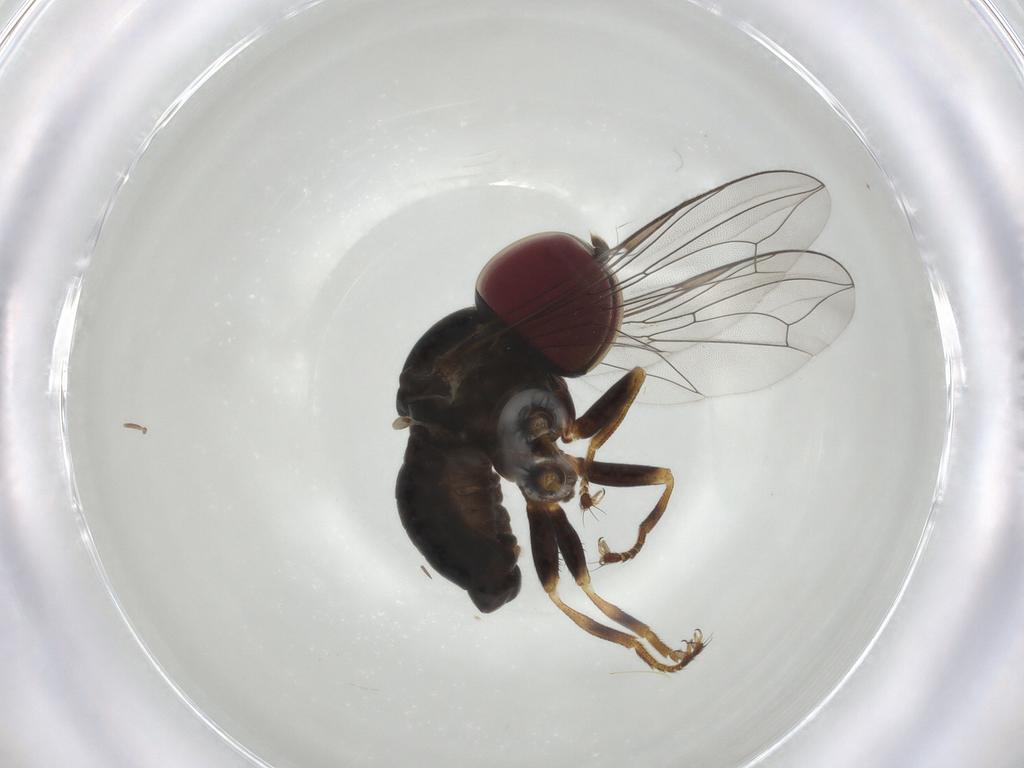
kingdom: Animalia
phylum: Arthropoda
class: Insecta
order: Diptera
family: Pipunculidae
